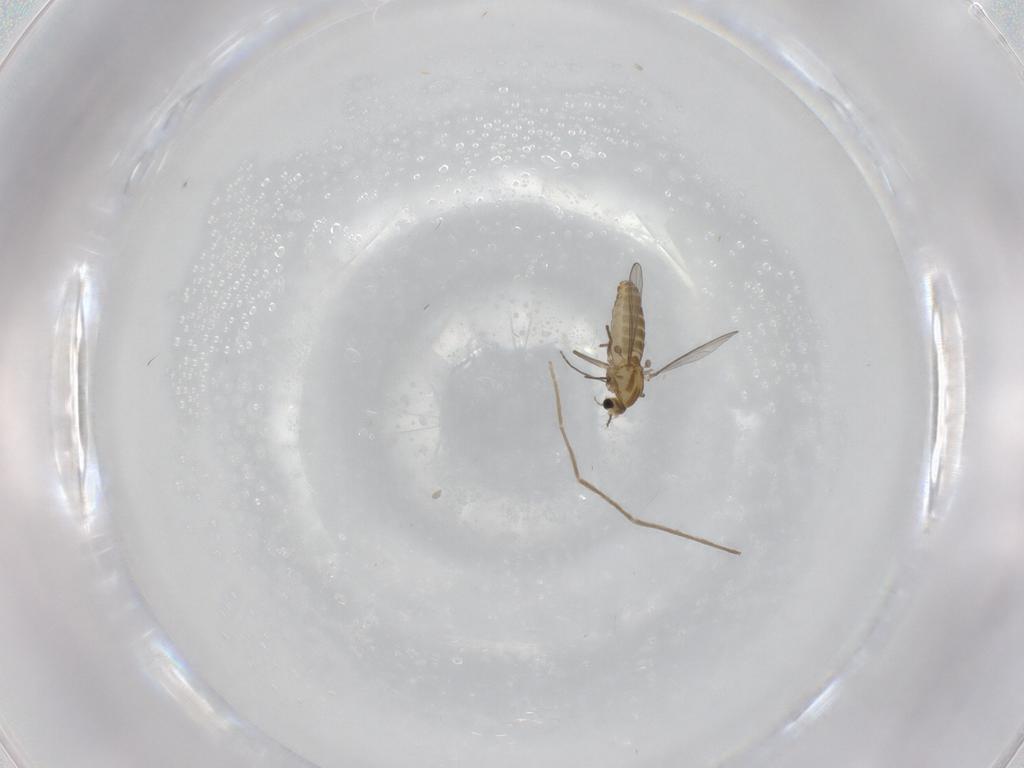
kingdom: Animalia
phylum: Arthropoda
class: Insecta
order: Diptera
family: Chironomidae
